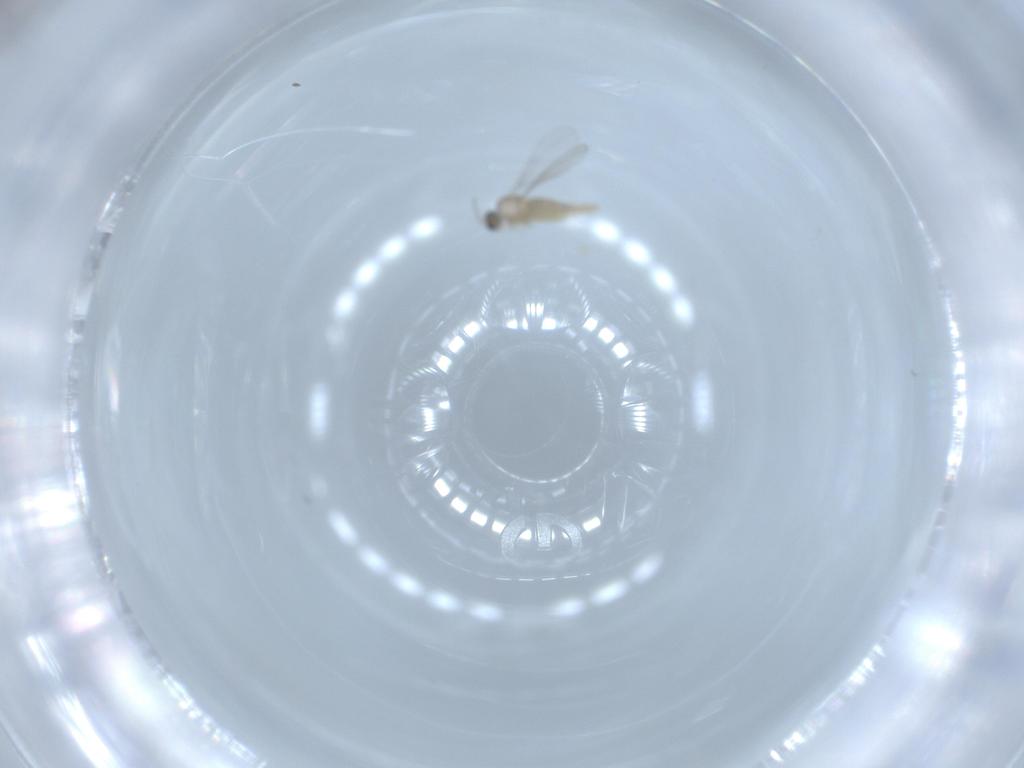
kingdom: Animalia
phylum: Arthropoda
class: Insecta
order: Diptera
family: Cecidomyiidae
